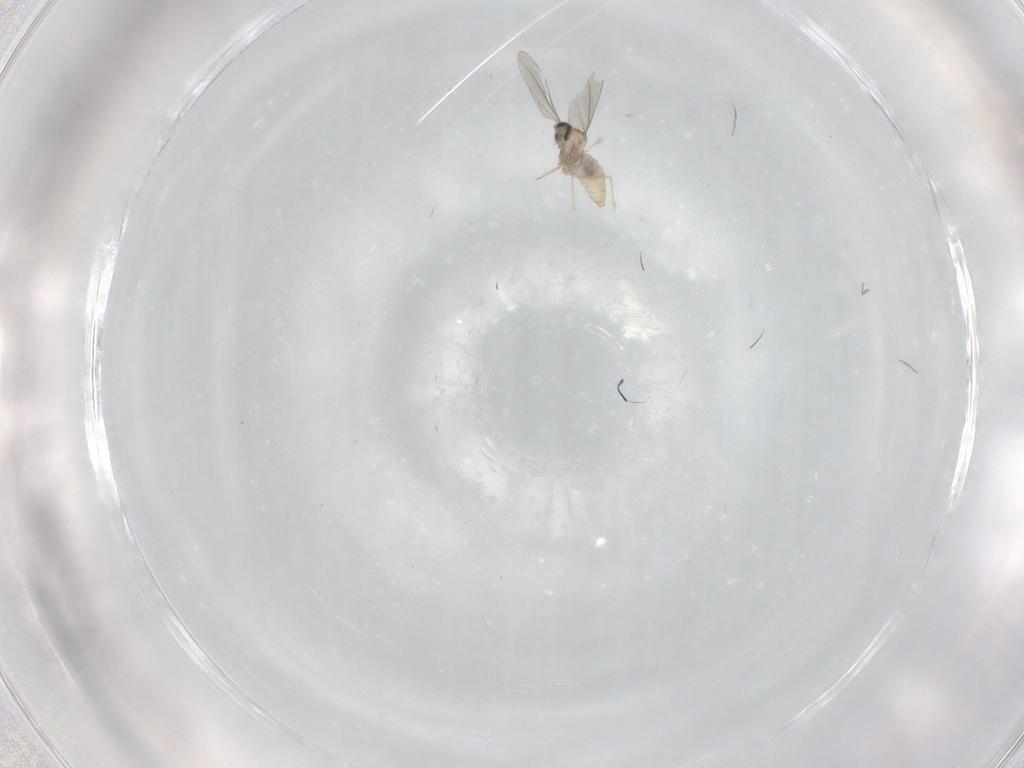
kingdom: Animalia
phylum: Arthropoda
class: Insecta
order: Diptera
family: Cecidomyiidae
